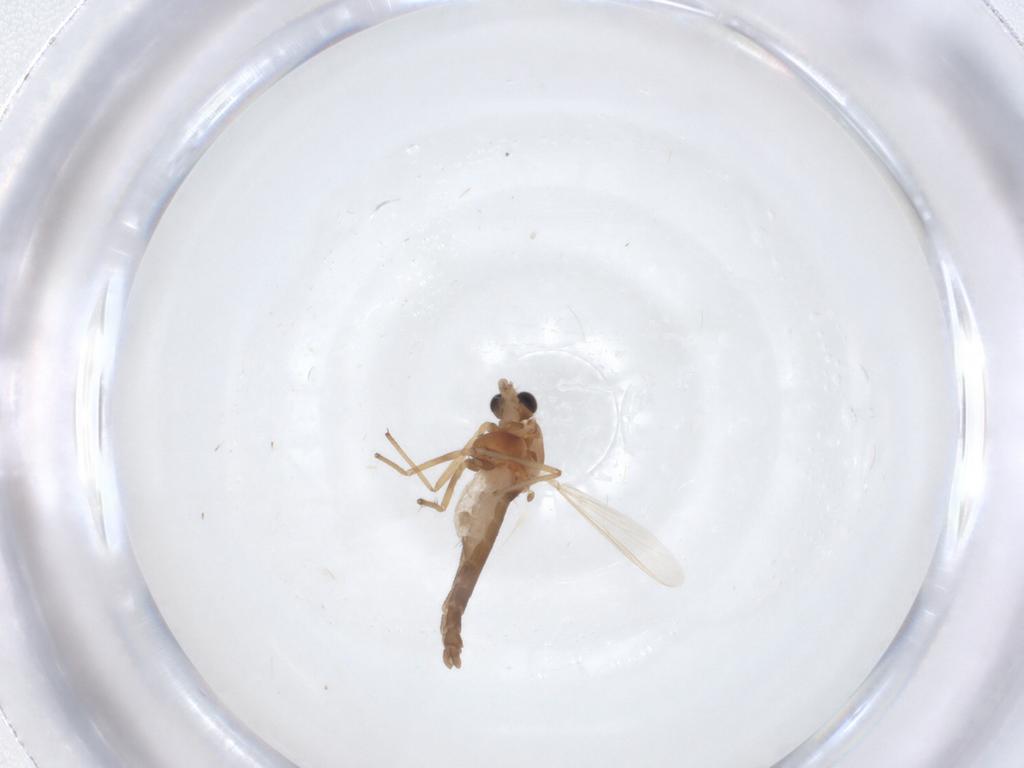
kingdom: Animalia
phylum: Arthropoda
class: Insecta
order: Diptera
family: Chironomidae
